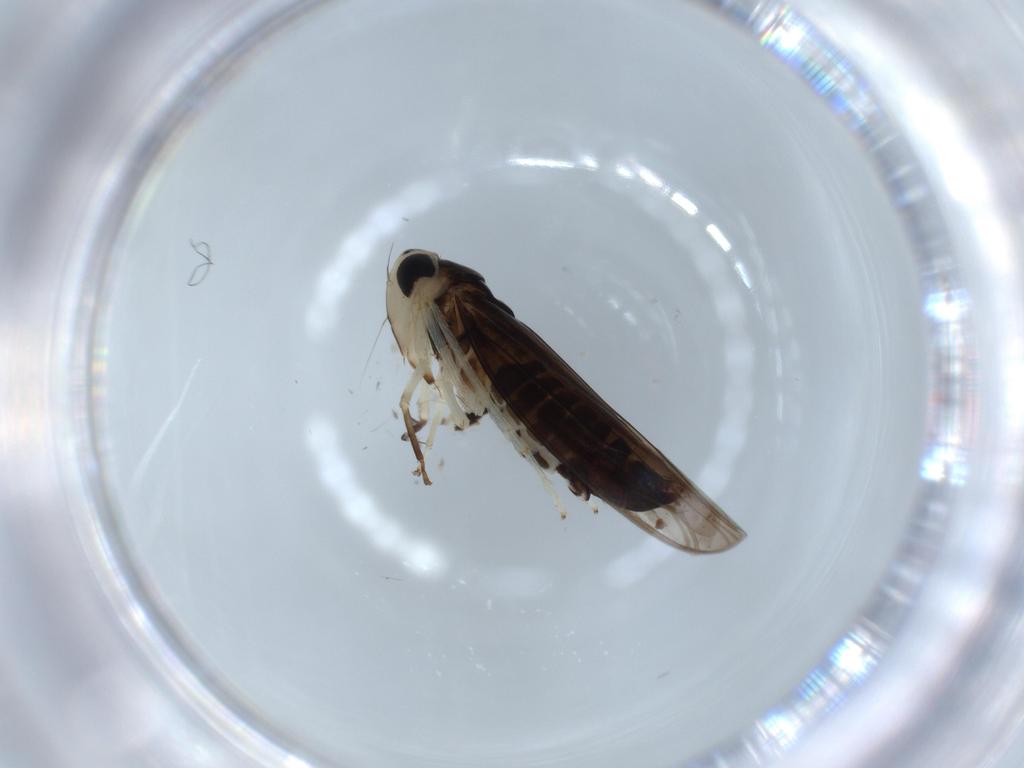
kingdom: Animalia
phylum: Arthropoda
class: Insecta
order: Hemiptera
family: Cicadellidae
